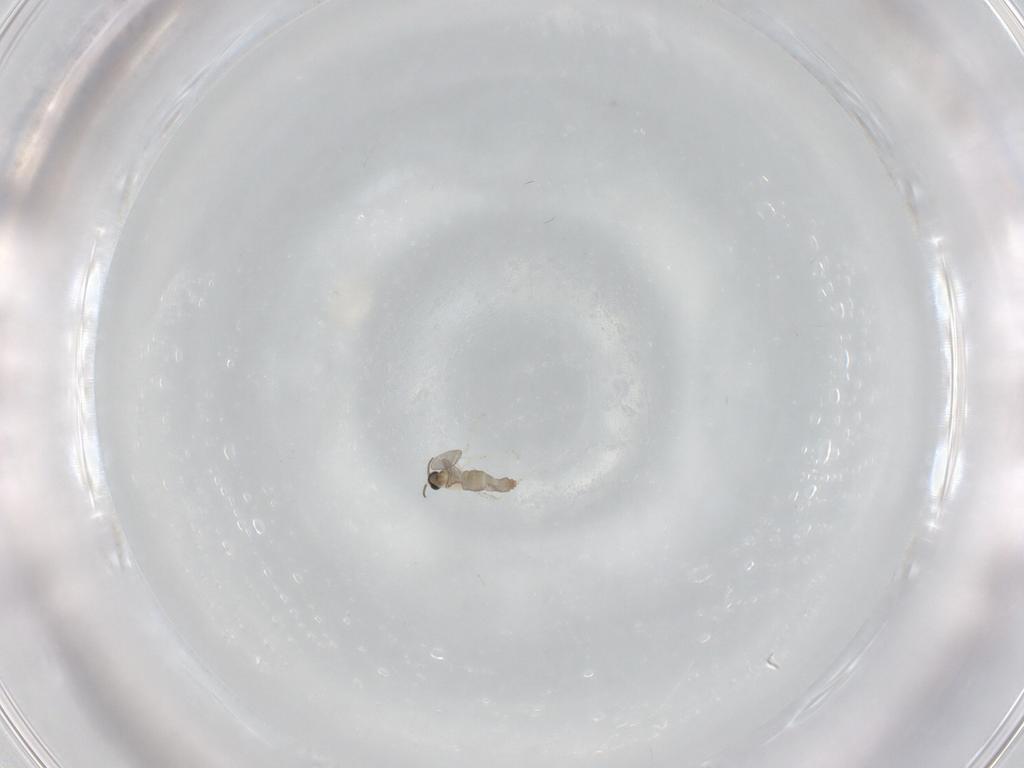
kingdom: Animalia
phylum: Arthropoda
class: Insecta
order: Diptera
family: Cecidomyiidae
